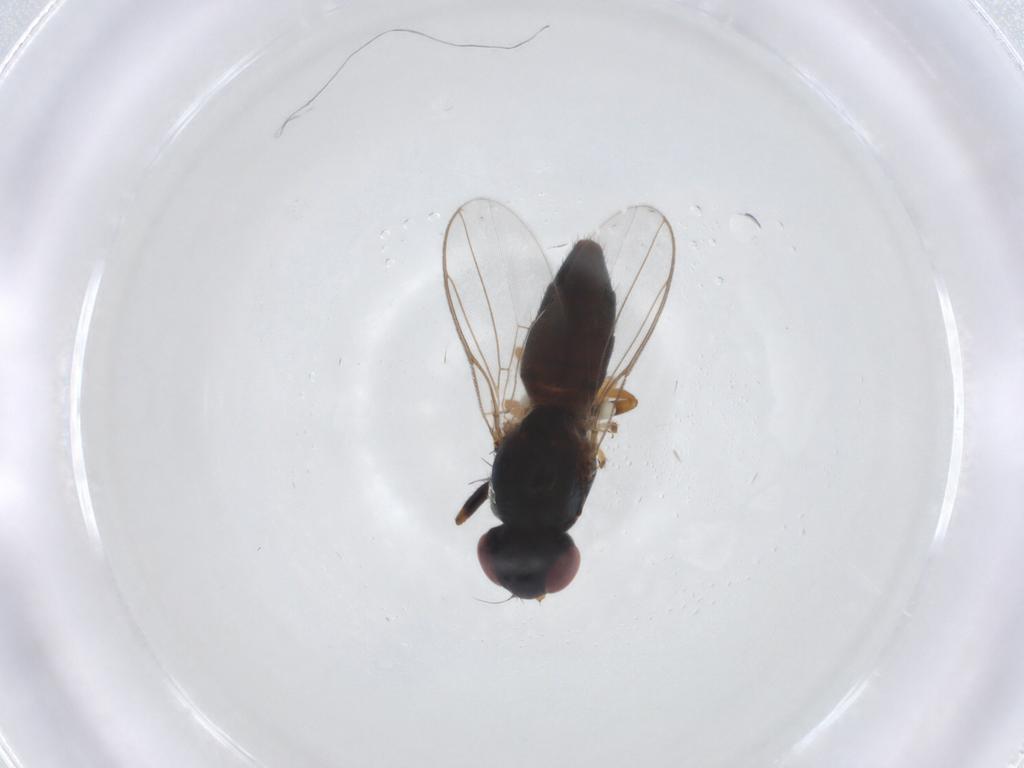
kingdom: Animalia
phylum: Arthropoda
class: Insecta
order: Diptera
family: Chloropidae
